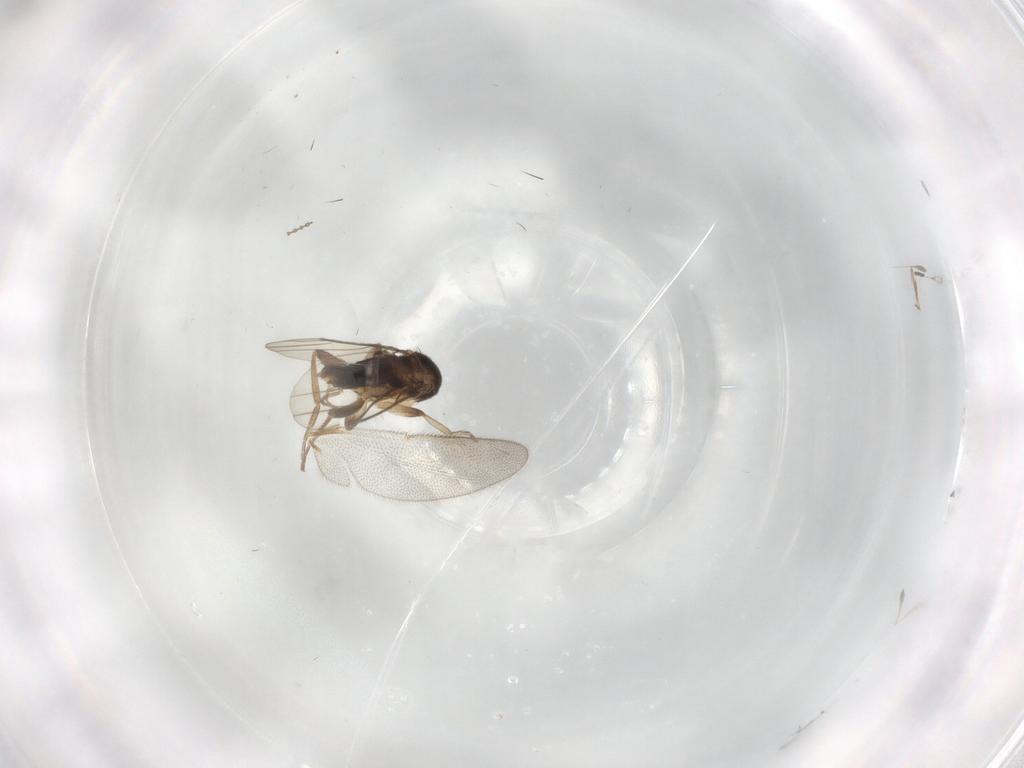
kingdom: Animalia
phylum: Arthropoda
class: Insecta
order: Diptera
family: Phoridae
